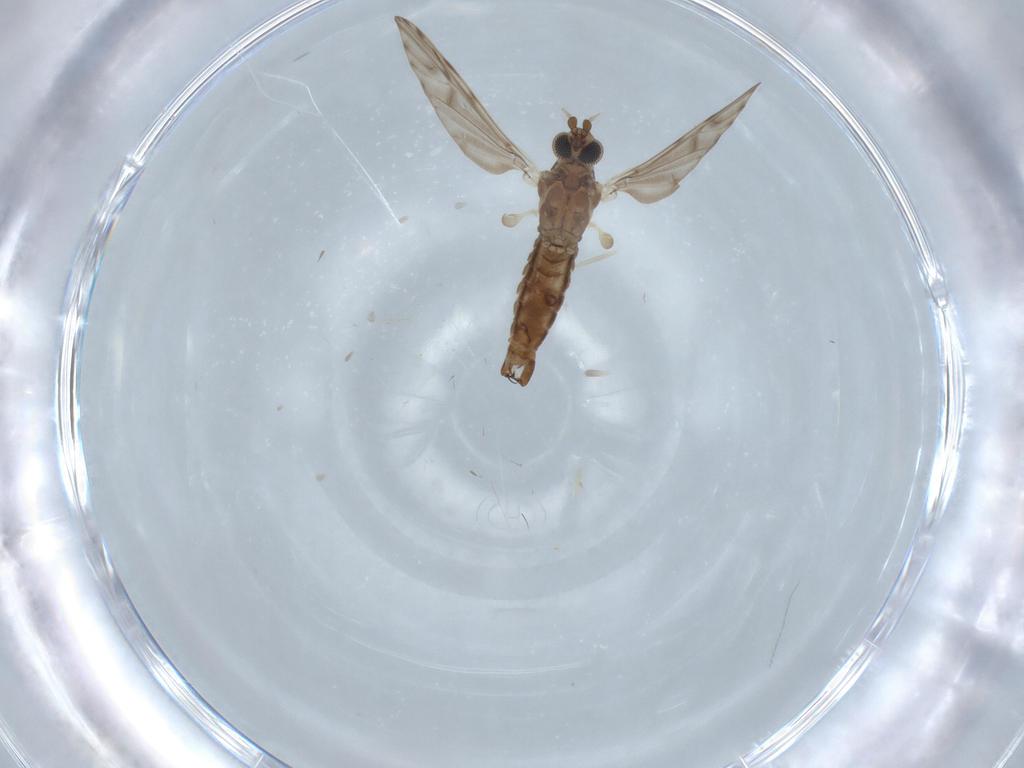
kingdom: Animalia
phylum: Arthropoda
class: Insecta
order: Diptera
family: Limoniidae
